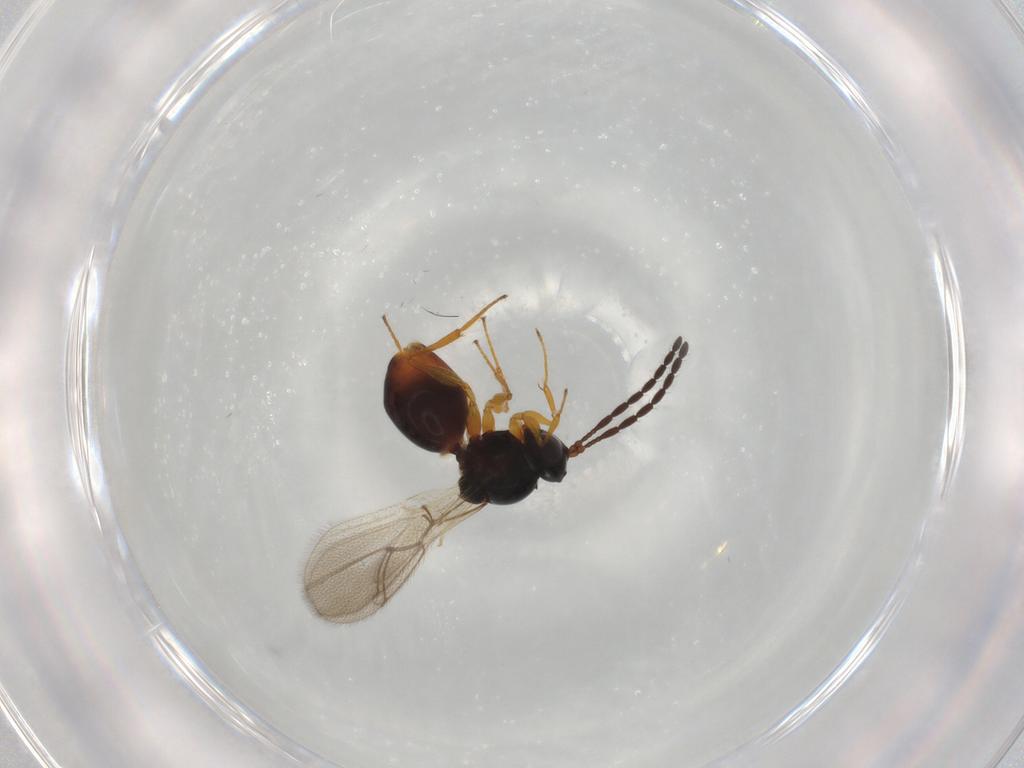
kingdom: Animalia
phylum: Arthropoda
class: Insecta
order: Hymenoptera
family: Figitidae
